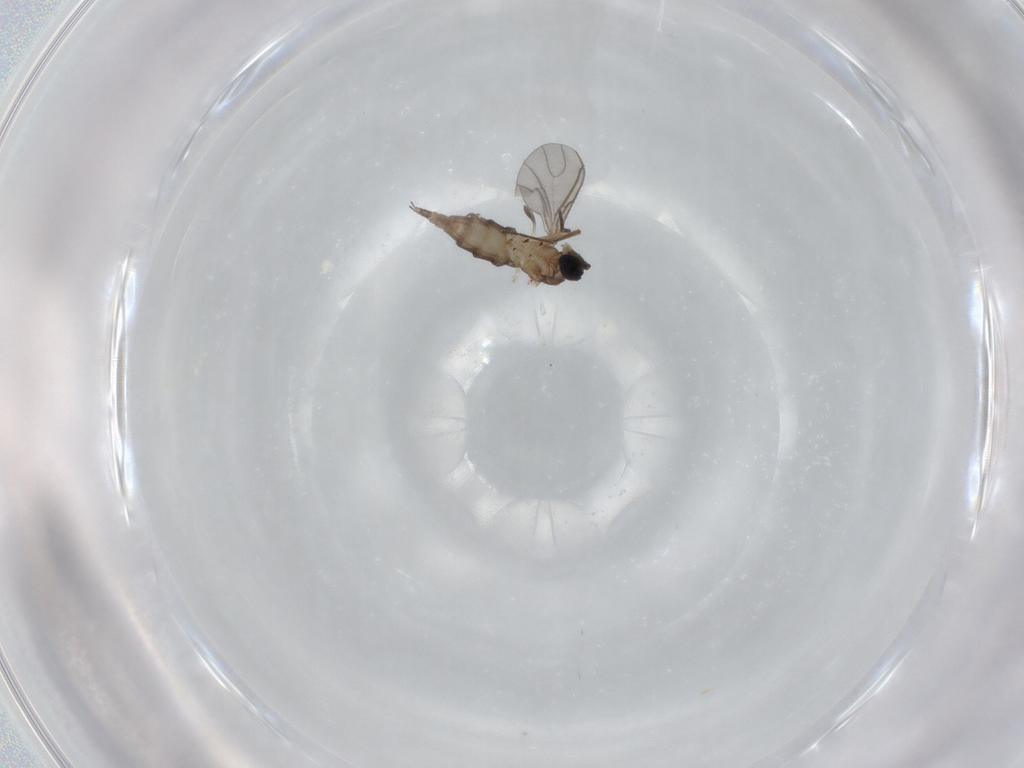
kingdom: Animalia
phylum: Arthropoda
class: Insecta
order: Diptera
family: Sciaridae
